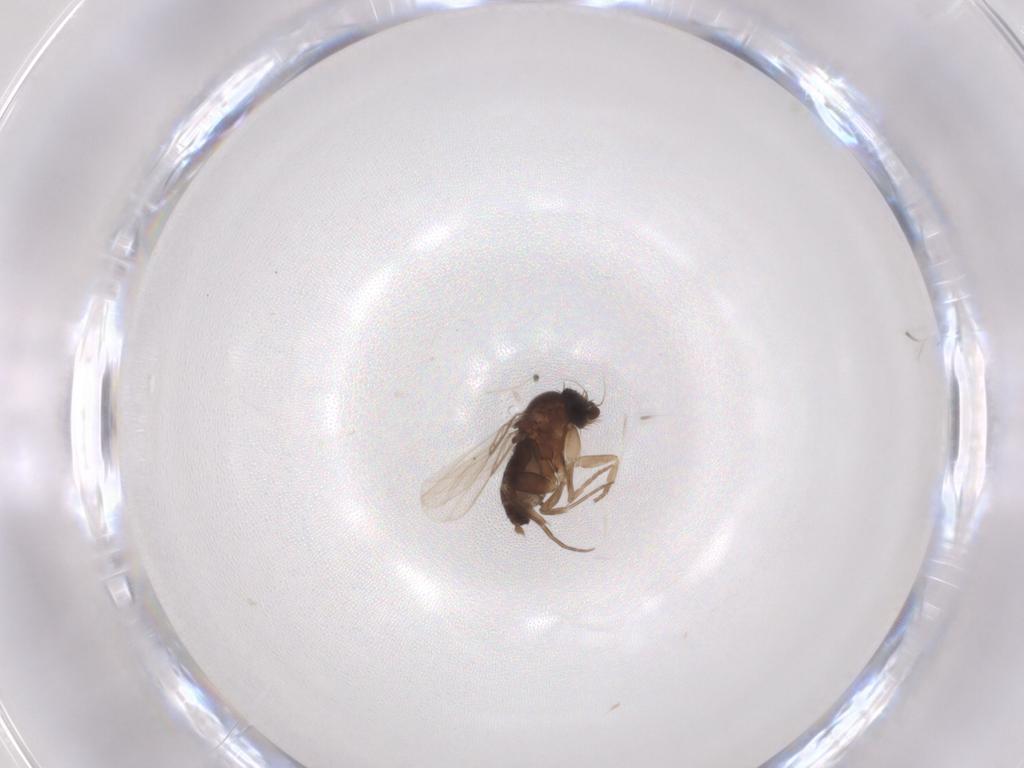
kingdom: Animalia
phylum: Arthropoda
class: Insecta
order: Diptera
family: Phoridae
